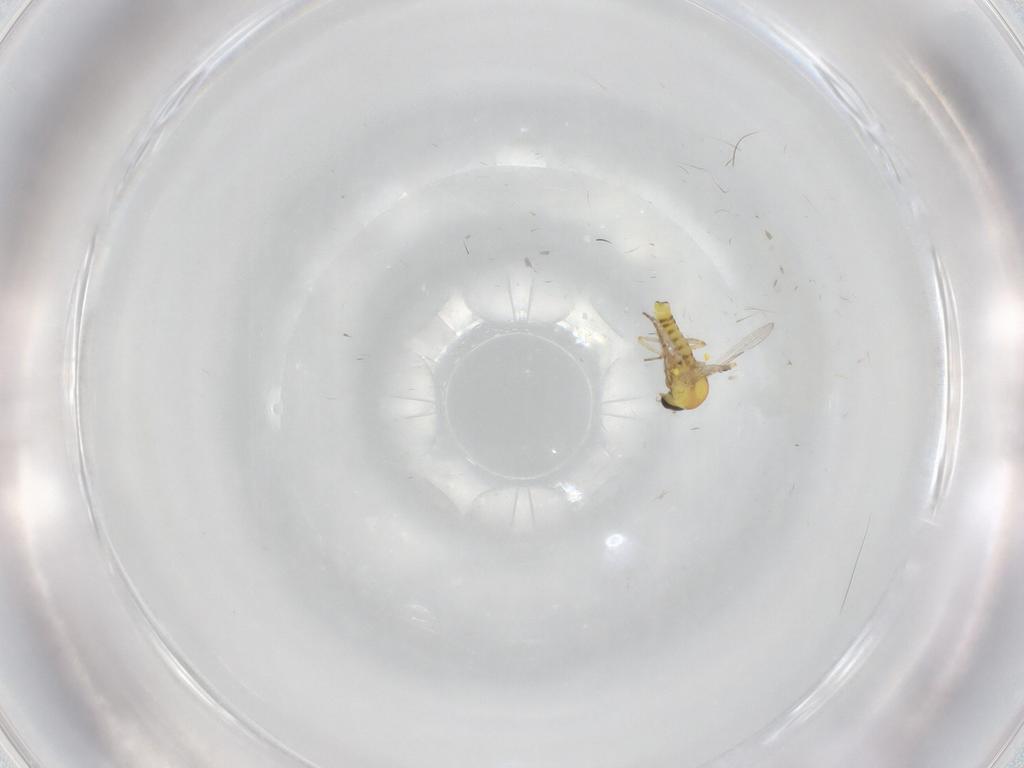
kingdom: Animalia
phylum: Arthropoda
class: Insecta
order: Diptera
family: Ceratopogonidae
